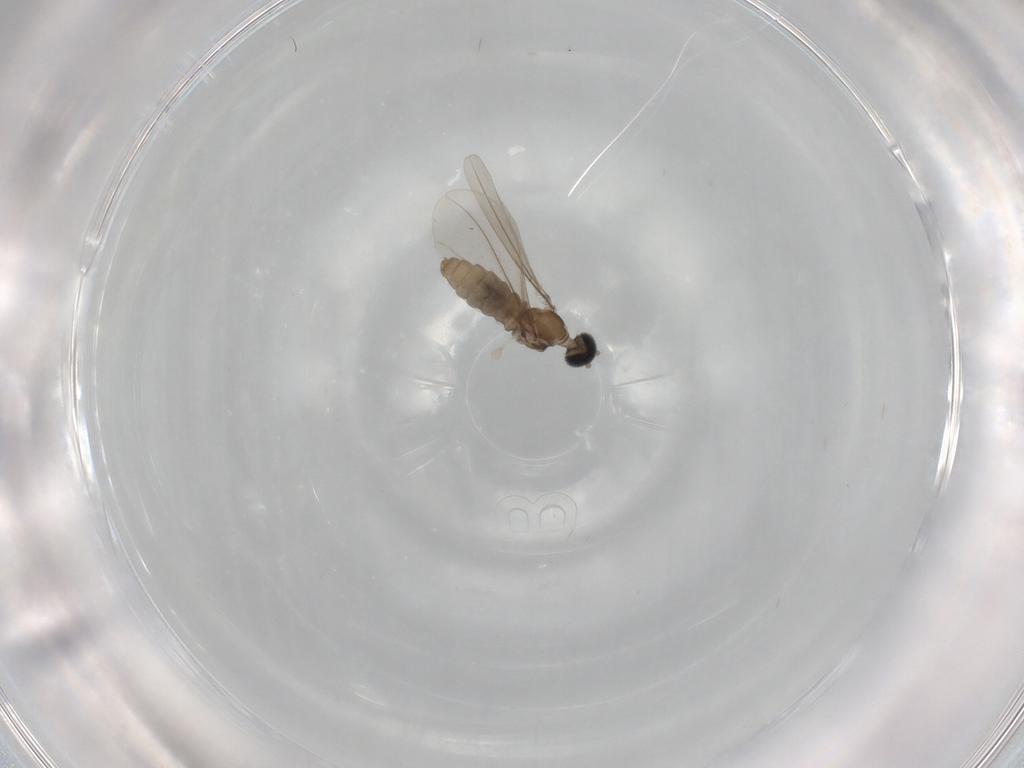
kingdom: Animalia
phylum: Arthropoda
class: Insecta
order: Diptera
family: Cecidomyiidae
